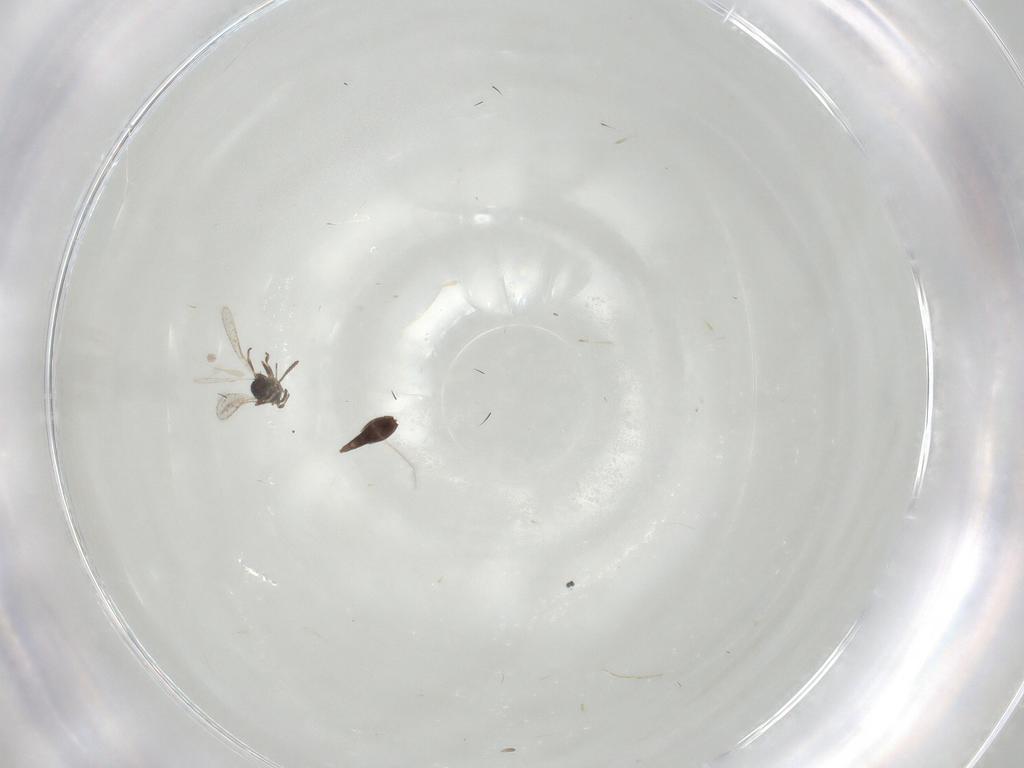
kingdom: Animalia
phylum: Arthropoda
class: Insecta
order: Hymenoptera
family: Scelionidae
